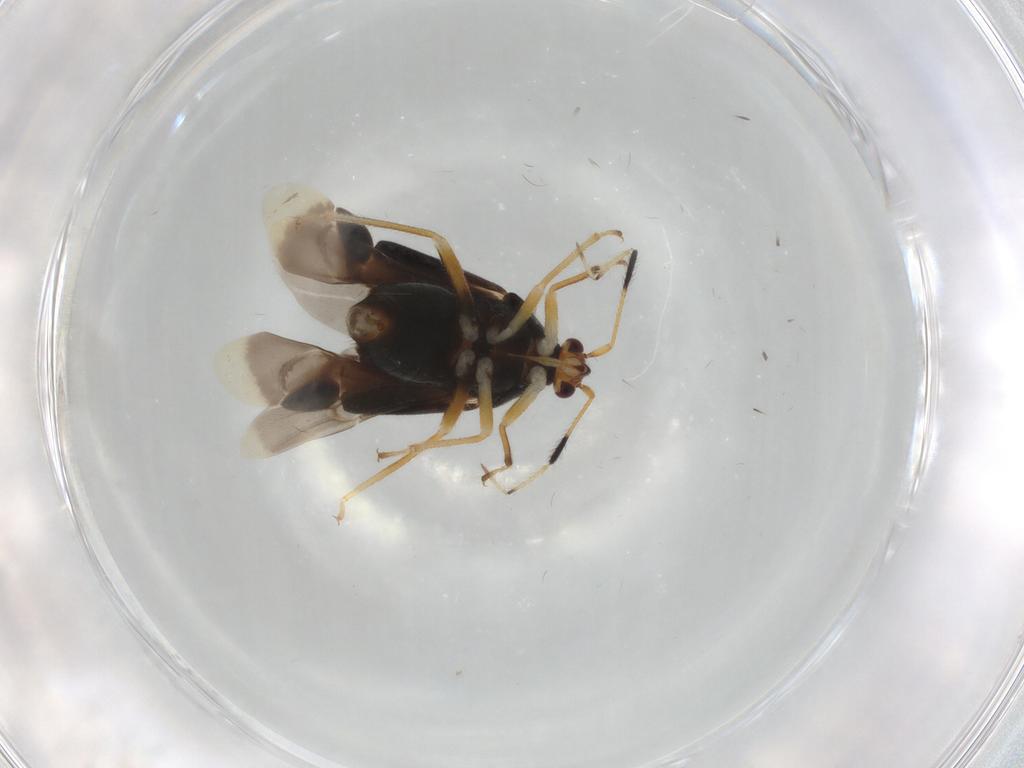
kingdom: Animalia
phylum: Arthropoda
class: Insecta
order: Hemiptera
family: Miridae
